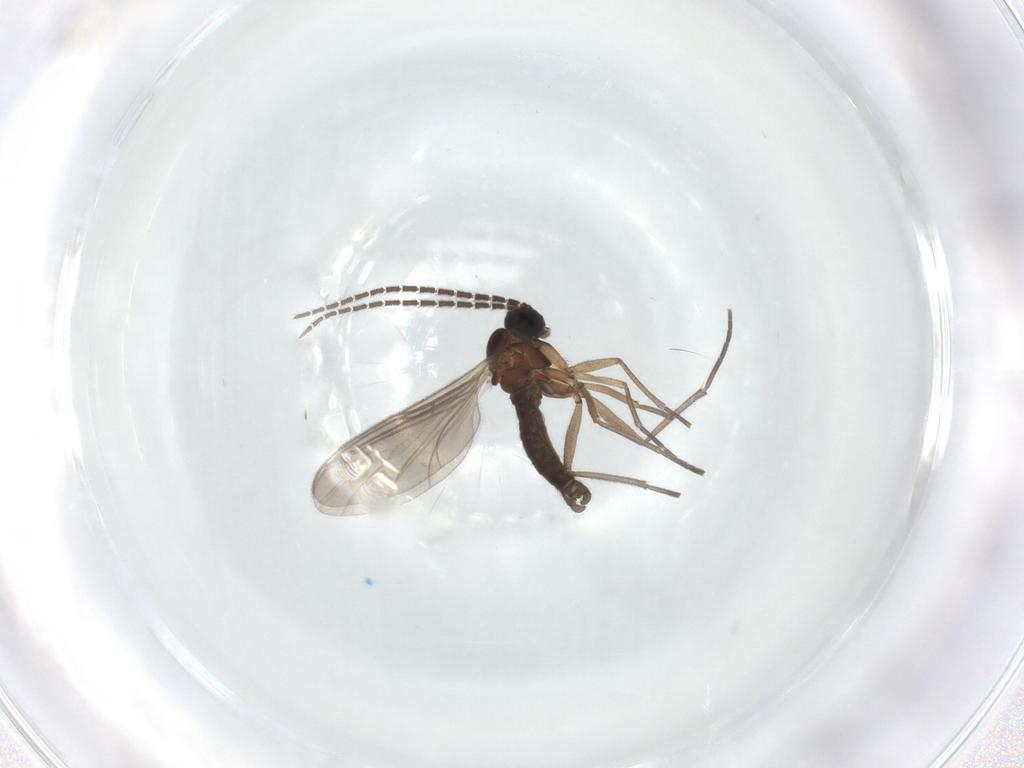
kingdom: Animalia
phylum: Arthropoda
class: Insecta
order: Diptera
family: Sciaridae
